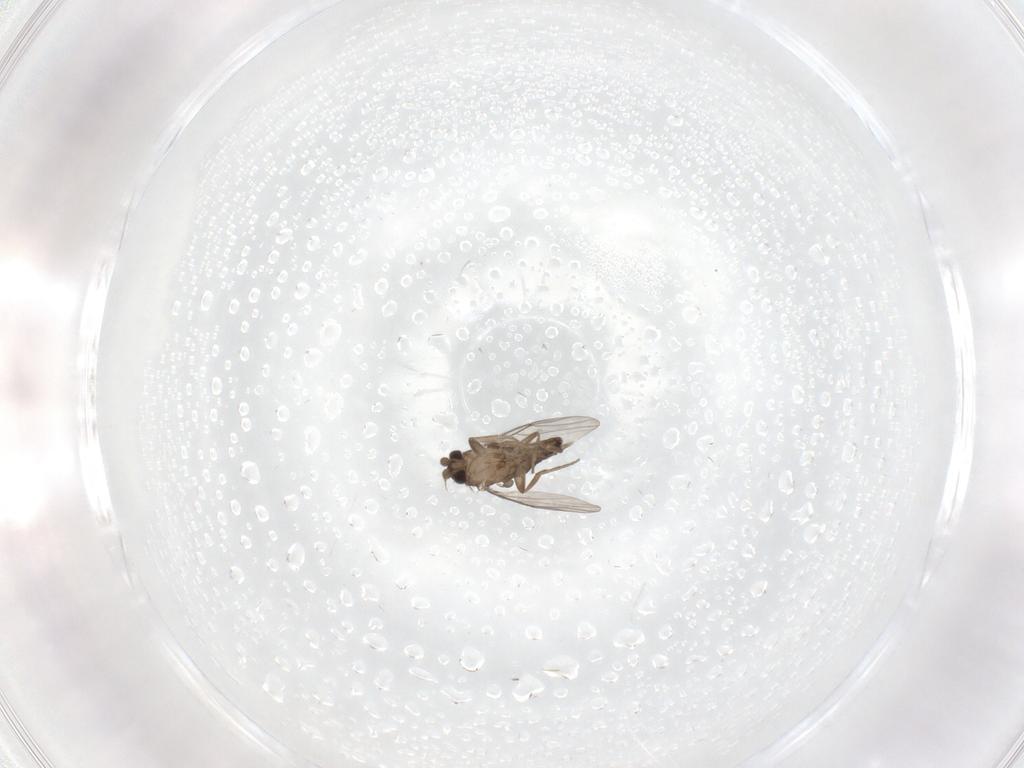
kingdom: Animalia
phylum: Arthropoda
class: Insecta
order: Diptera
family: Phoridae
